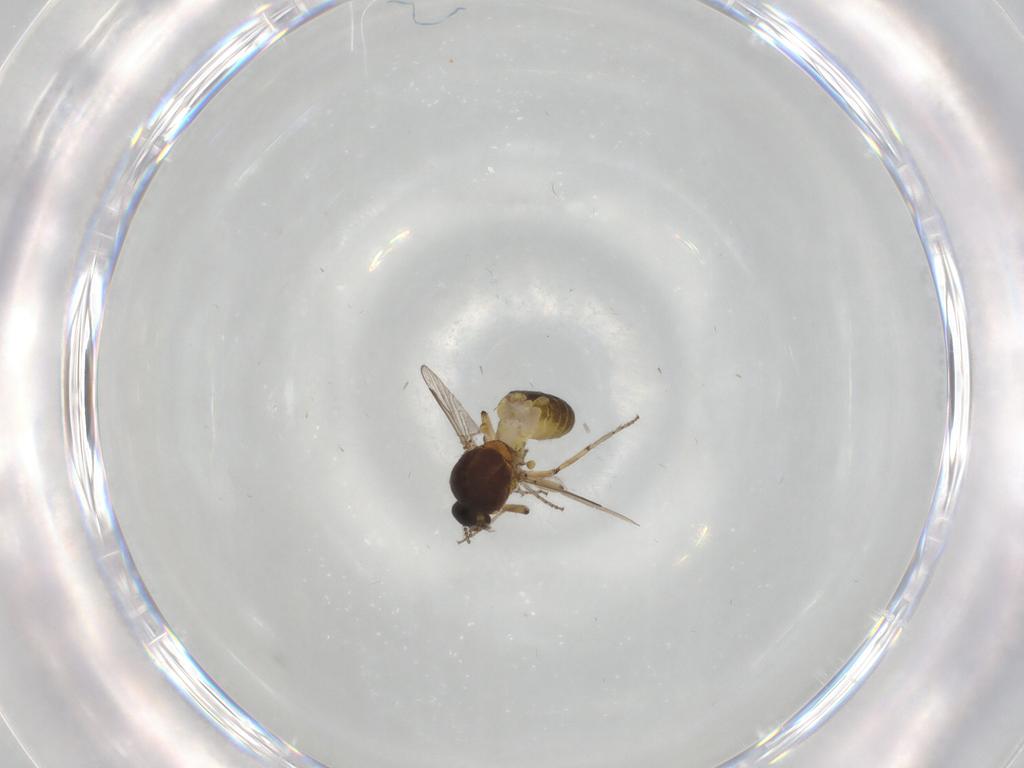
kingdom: Animalia
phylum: Arthropoda
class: Insecta
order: Diptera
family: Ceratopogonidae
